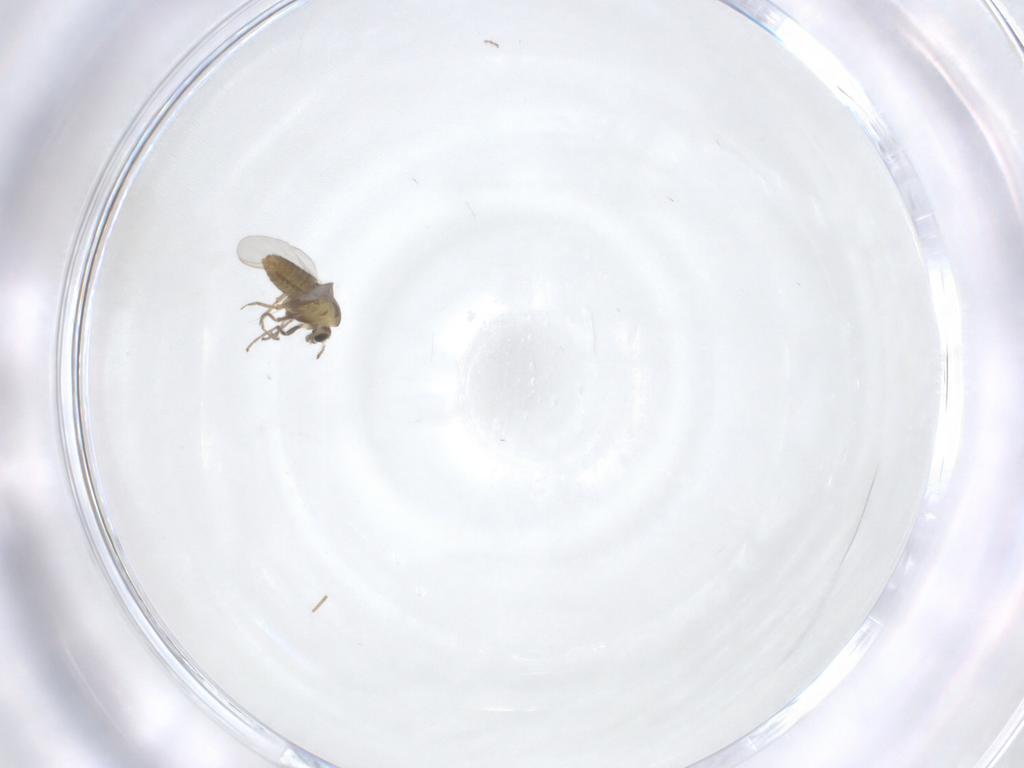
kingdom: Animalia
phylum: Arthropoda
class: Insecta
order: Diptera
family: Chironomidae
